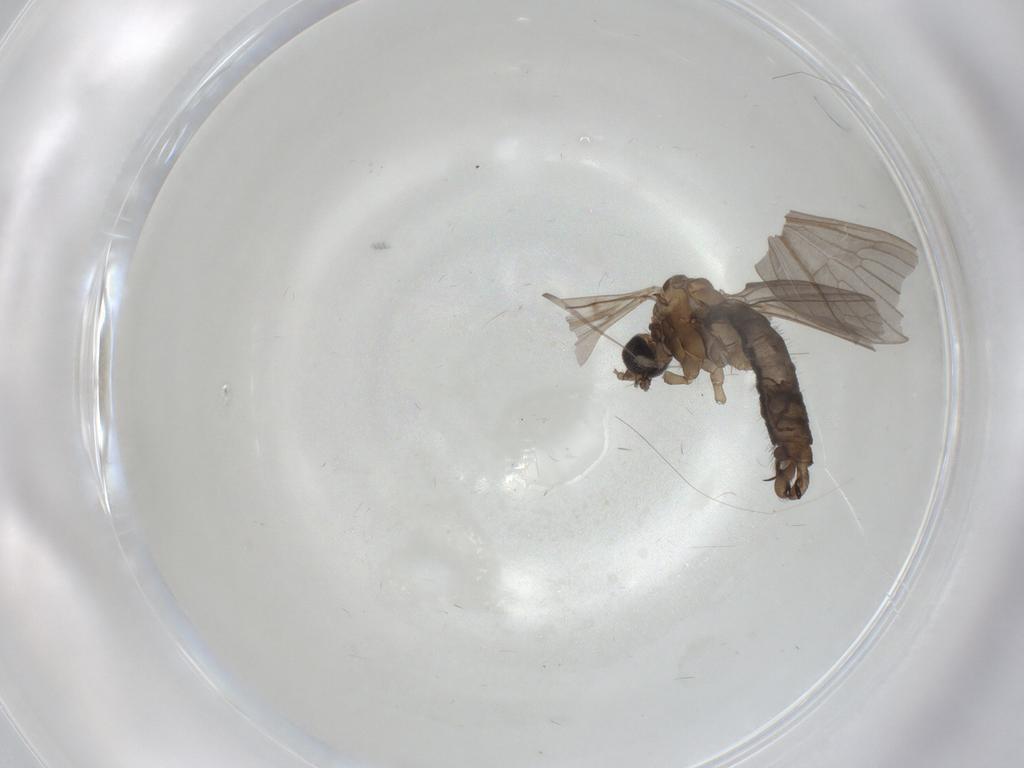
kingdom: Animalia
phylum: Arthropoda
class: Insecta
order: Diptera
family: Limoniidae
